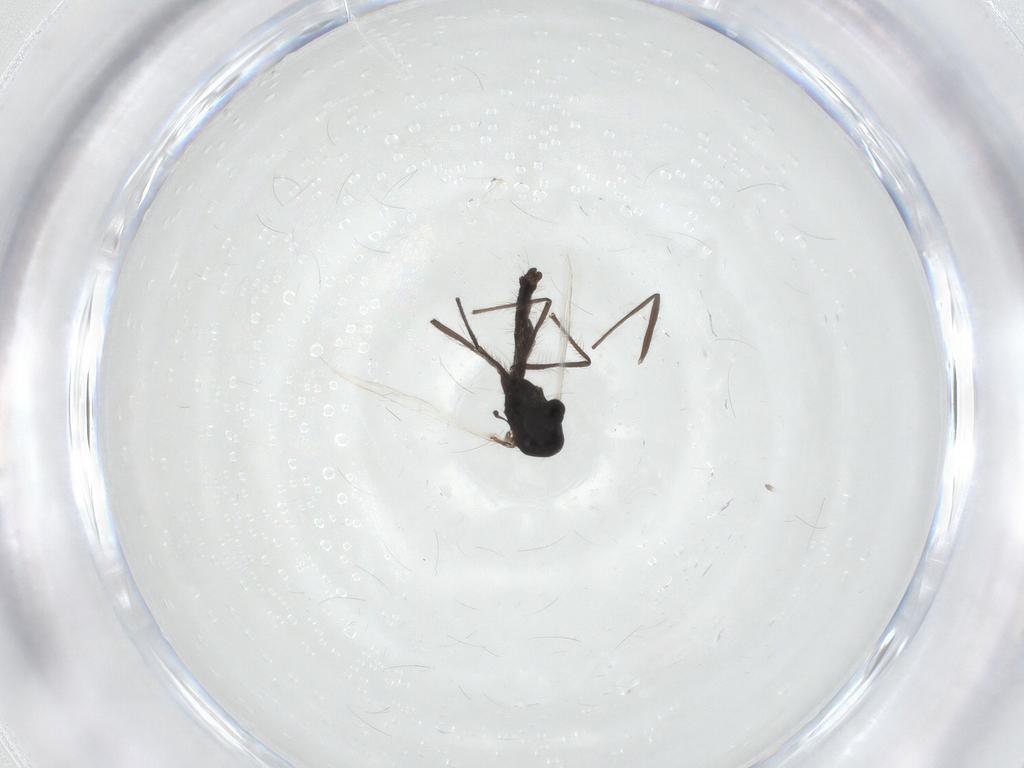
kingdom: Animalia
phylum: Arthropoda
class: Insecta
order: Diptera
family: Chironomidae
